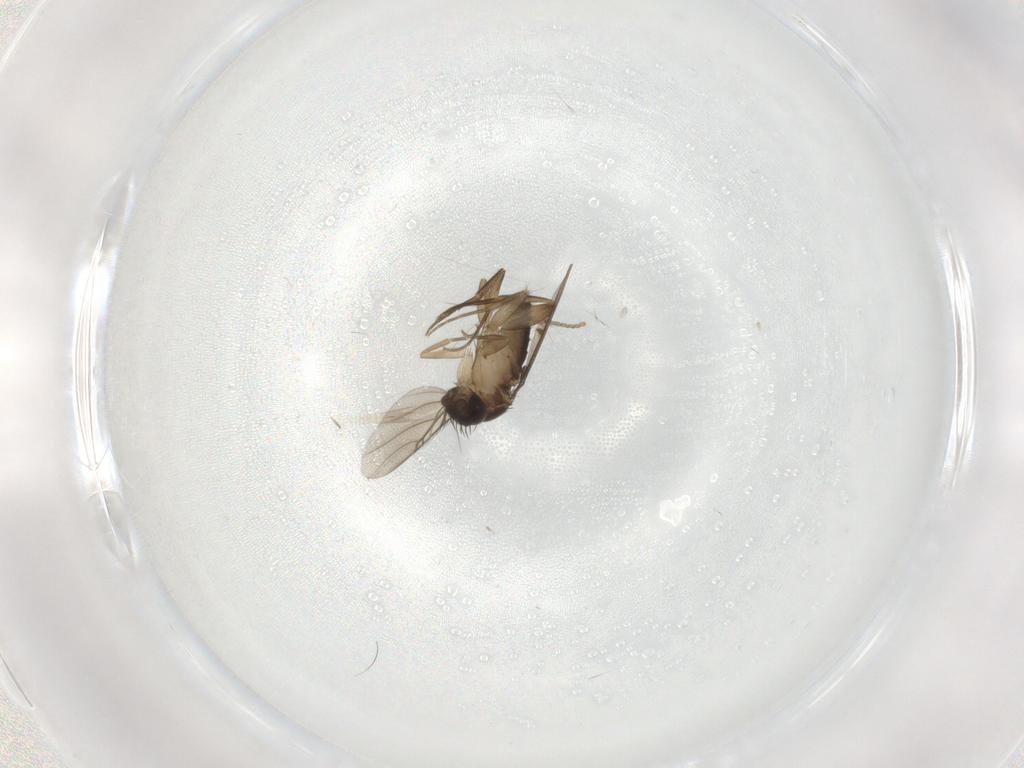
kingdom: Animalia
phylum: Arthropoda
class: Insecta
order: Diptera
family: Phoridae
